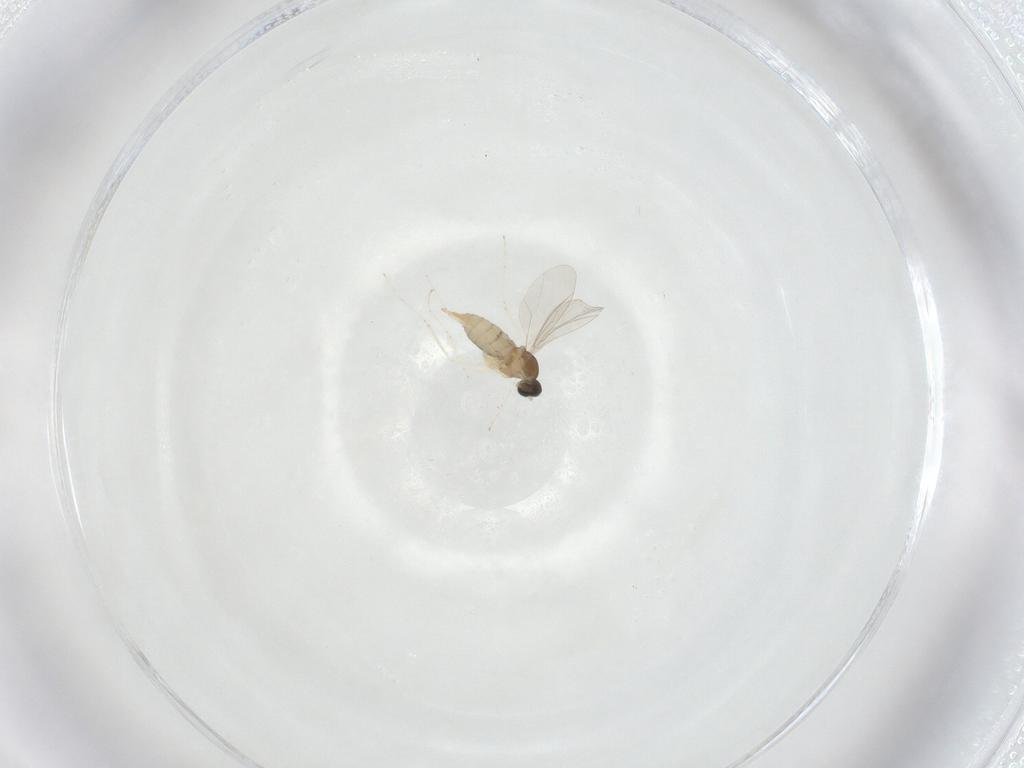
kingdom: Animalia
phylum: Arthropoda
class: Insecta
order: Diptera
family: Cecidomyiidae
